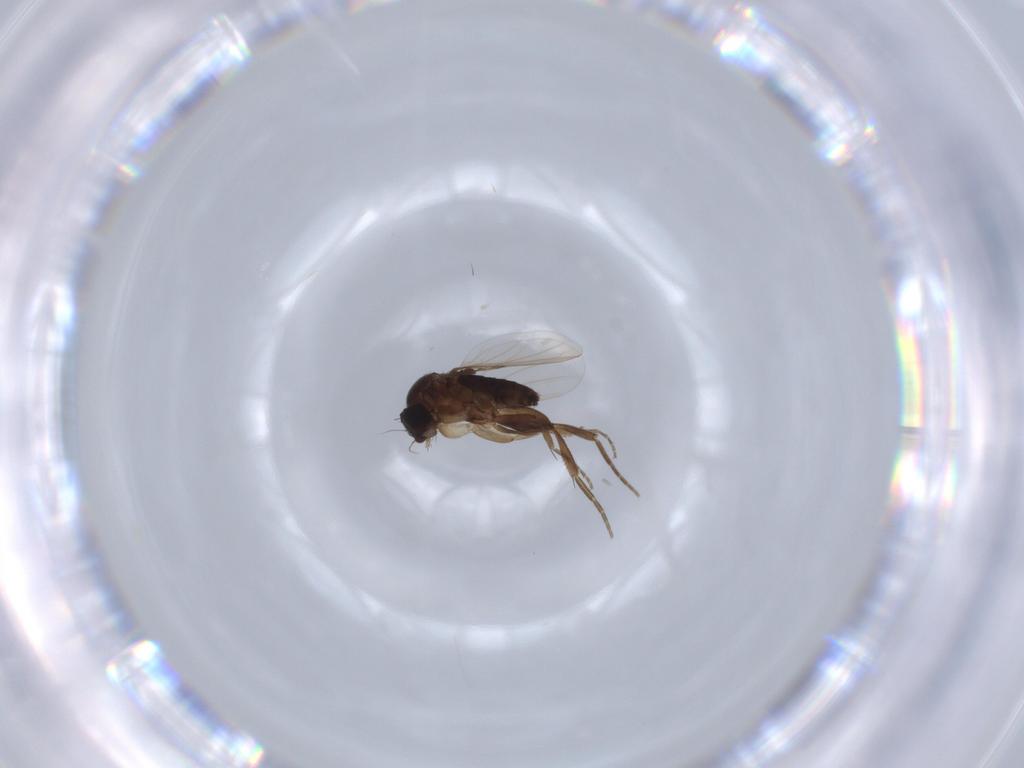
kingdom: Animalia
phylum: Arthropoda
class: Insecta
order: Diptera
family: Phoridae
